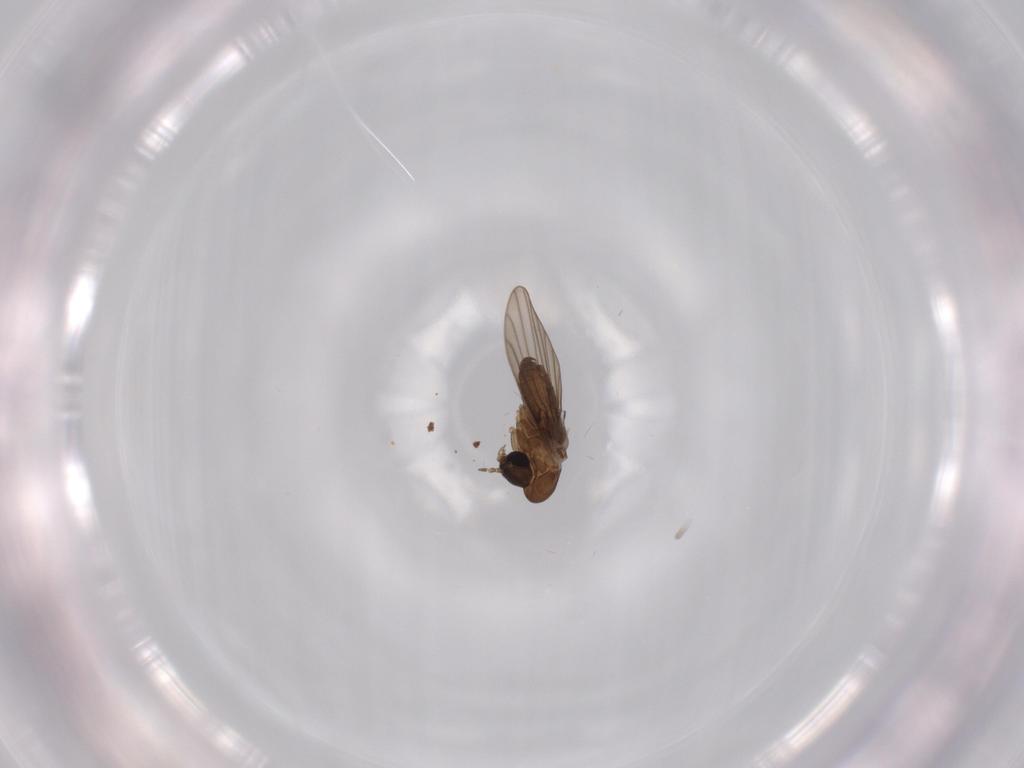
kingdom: Animalia
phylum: Arthropoda
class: Insecta
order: Diptera
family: Psychodidae
